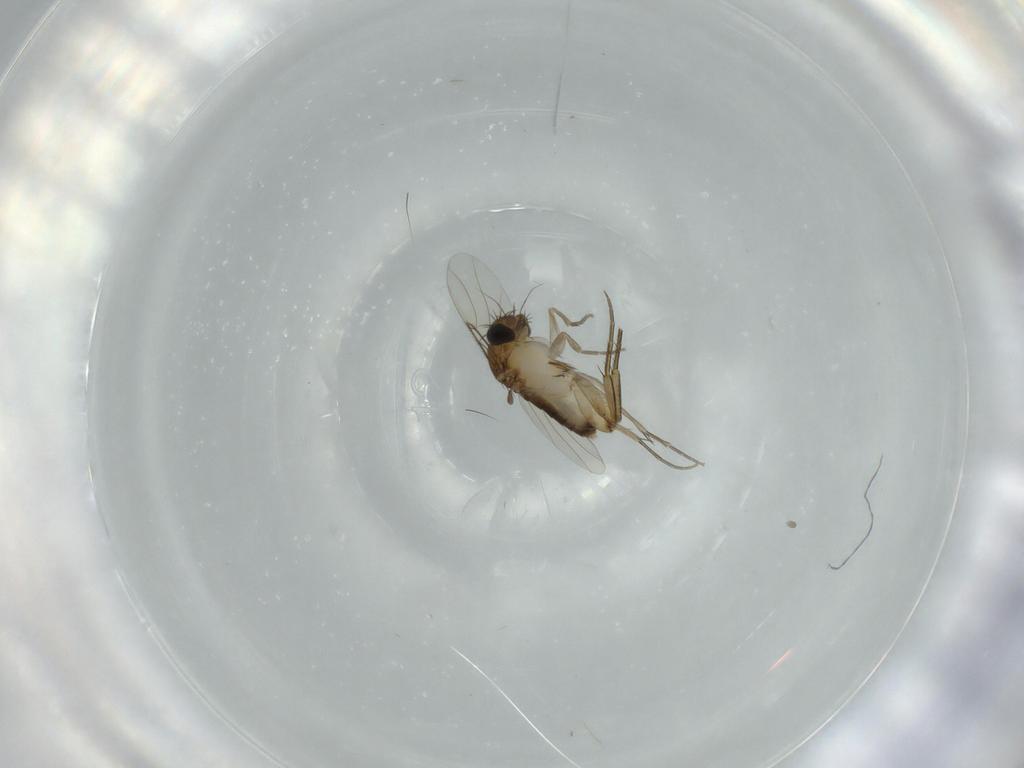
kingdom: Animalia
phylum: Arthropoda
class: Insecta
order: Diptera
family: Phoridae
